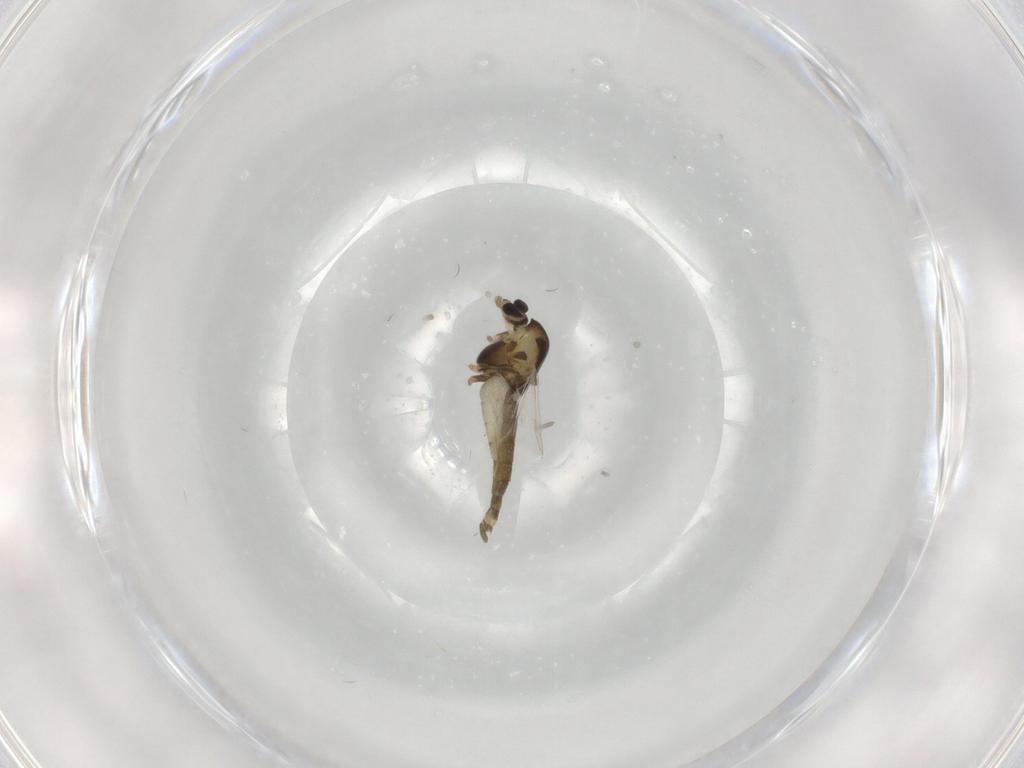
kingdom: Animalia
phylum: Arthropoda
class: Insecta
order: Diptera
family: Chironomidae
